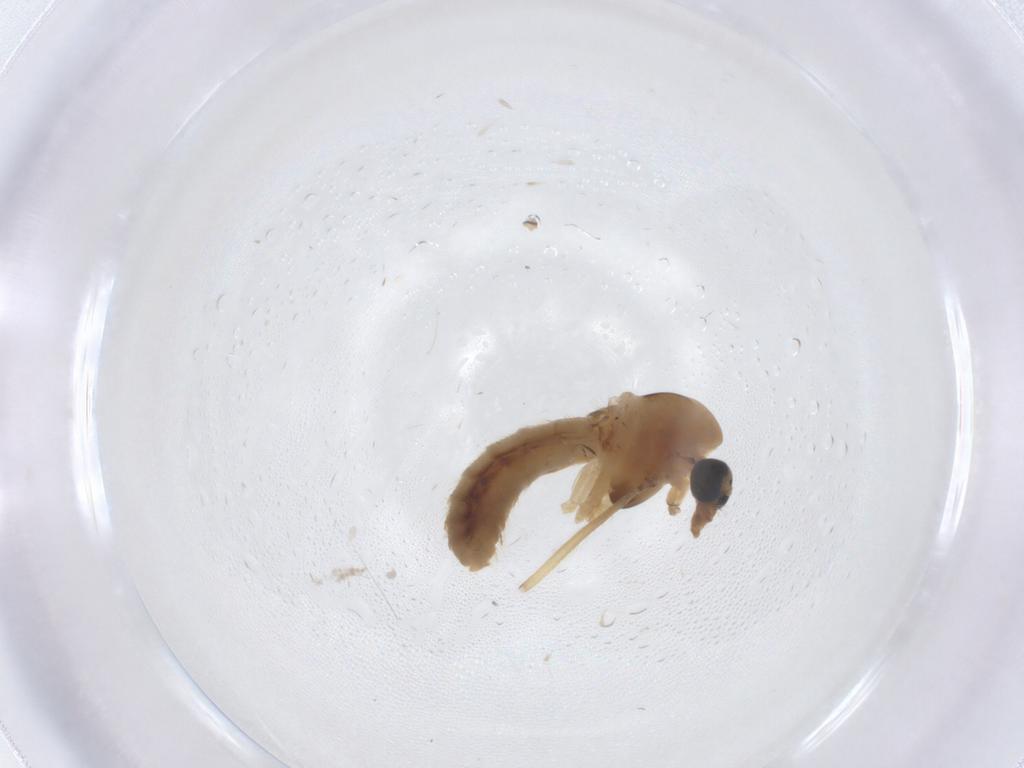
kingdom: Animalia
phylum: Arthropoda
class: Insecta
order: Diptera
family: Chironomidae
